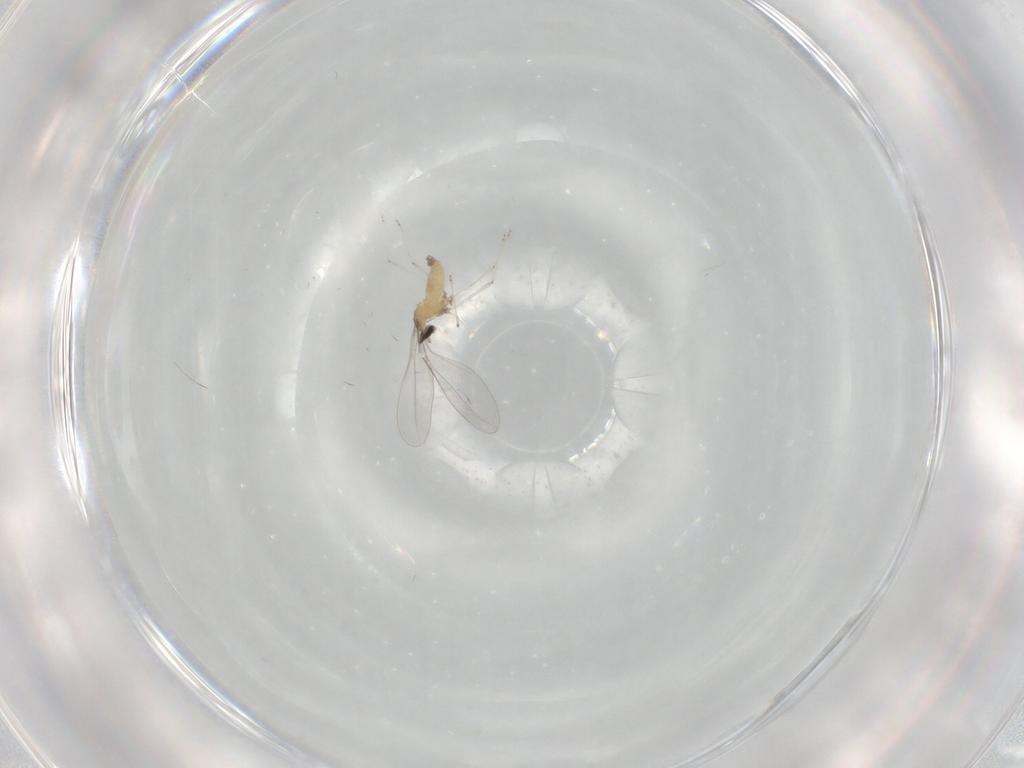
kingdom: Animalia
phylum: Arthropoda
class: Insecta
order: Diptera
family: Cecidomyiidae
